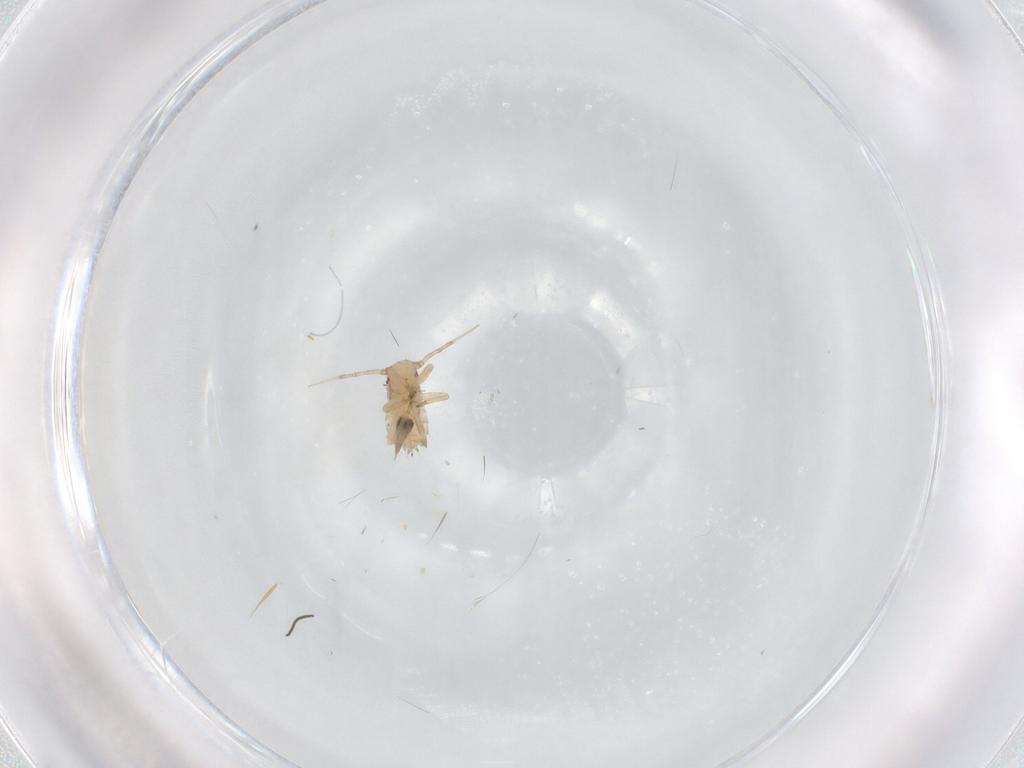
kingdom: Animalia
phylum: Arthropoda
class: Insecta
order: Hemiptera
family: Aphididae
